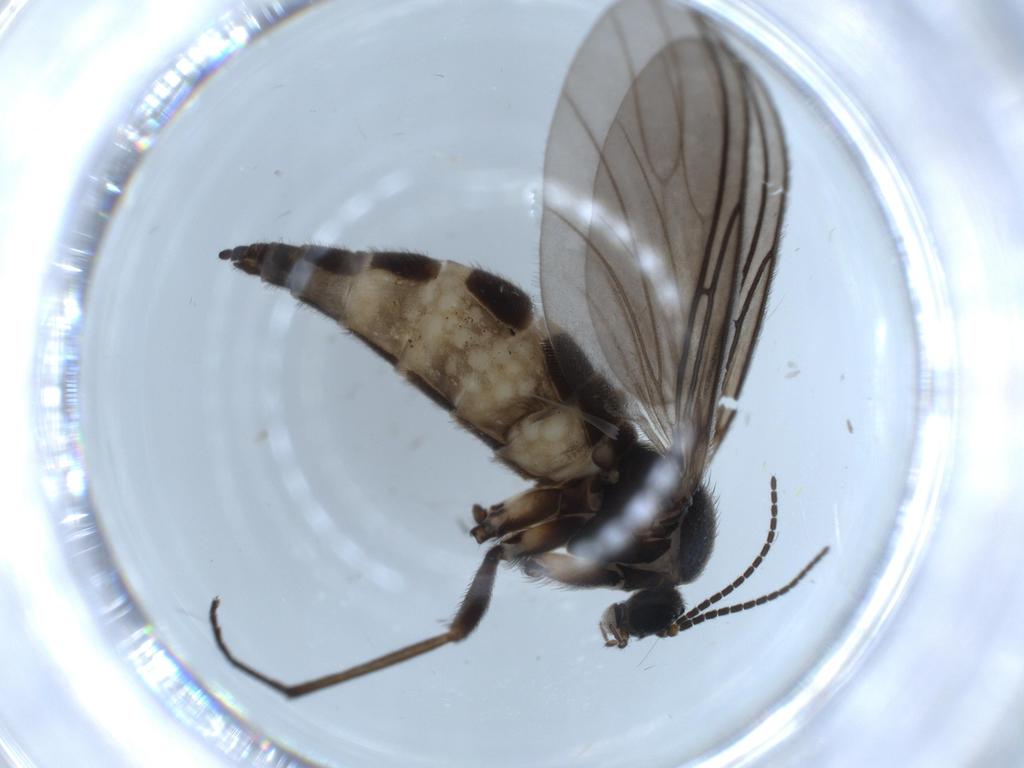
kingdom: Animalia
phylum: Arthropoda
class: Insecta
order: Diptera
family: Sciaridae
